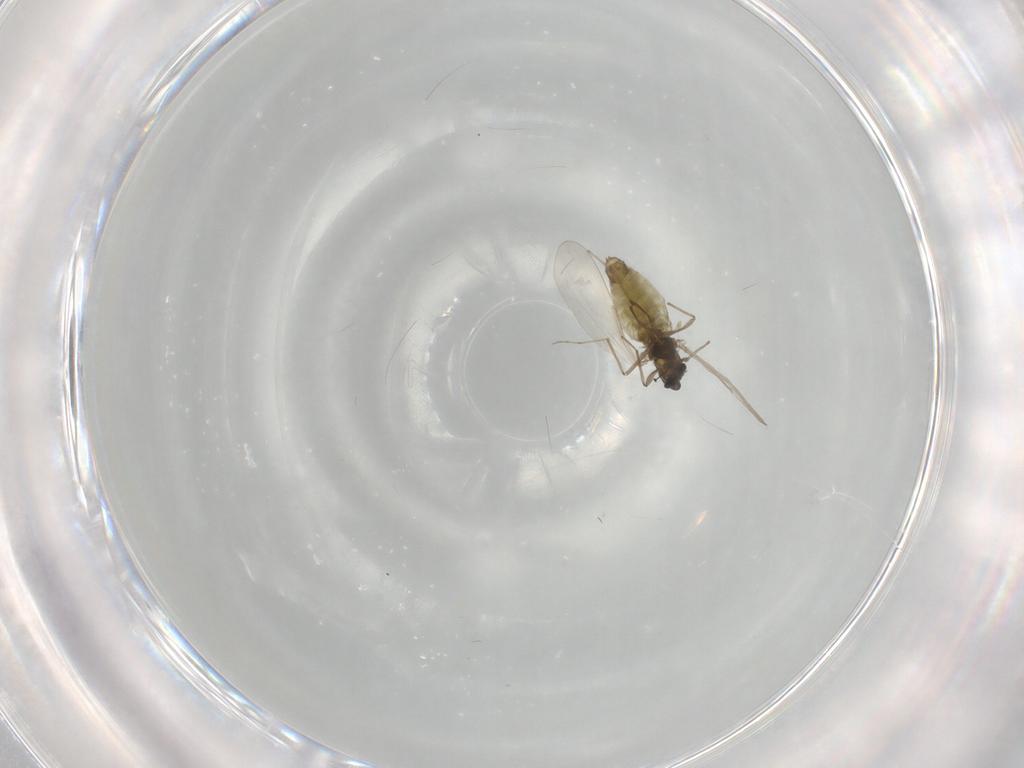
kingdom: Animalia
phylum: Arthropoda
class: Insecta
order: Diptera
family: Chironomidae
